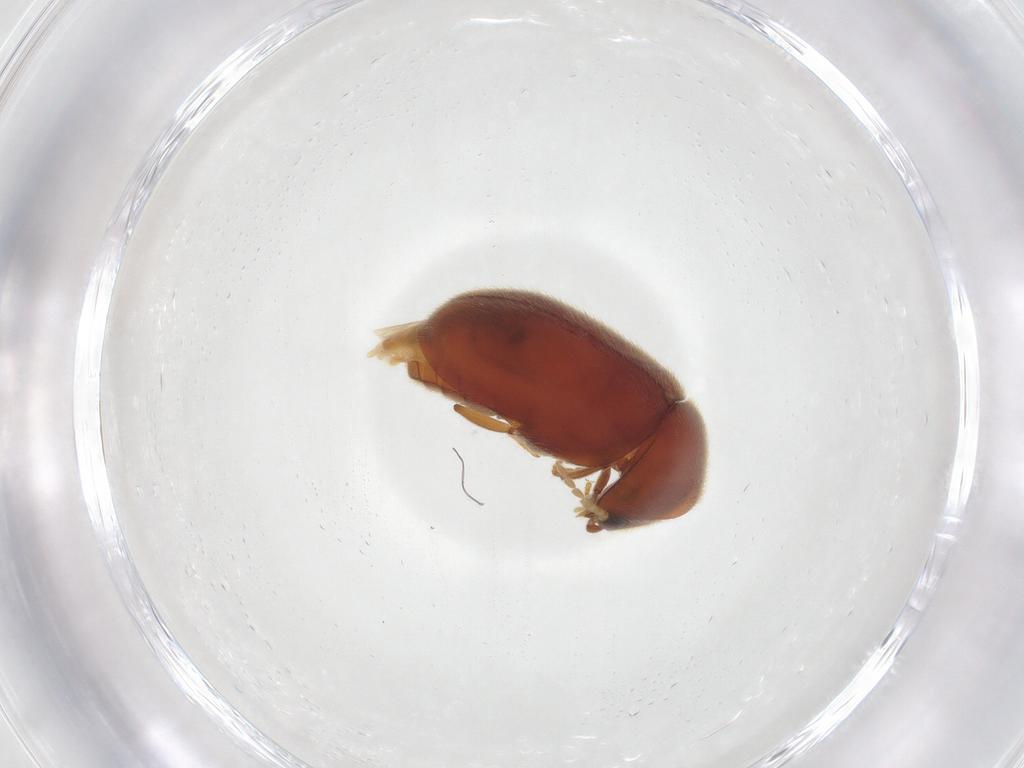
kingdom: Animalia
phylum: Arthropoda
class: Insecta
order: Coleoptera
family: Ptinidae
